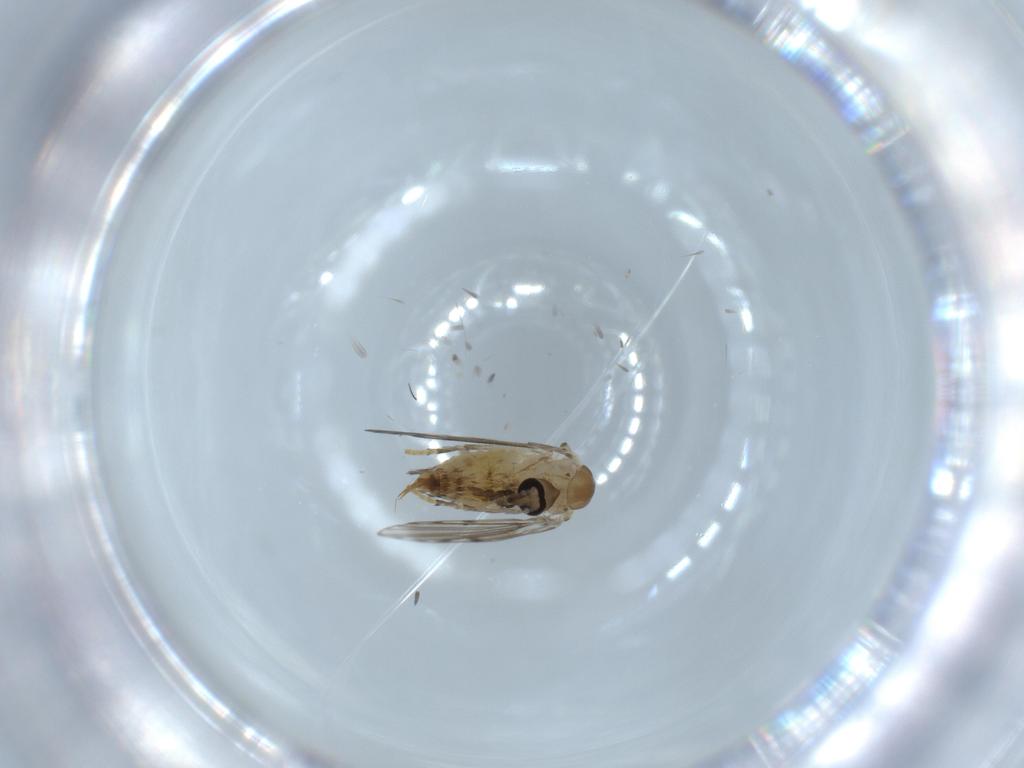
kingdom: Animalia
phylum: Arthropoda
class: Insecta
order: Diptera
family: Psychodidae
